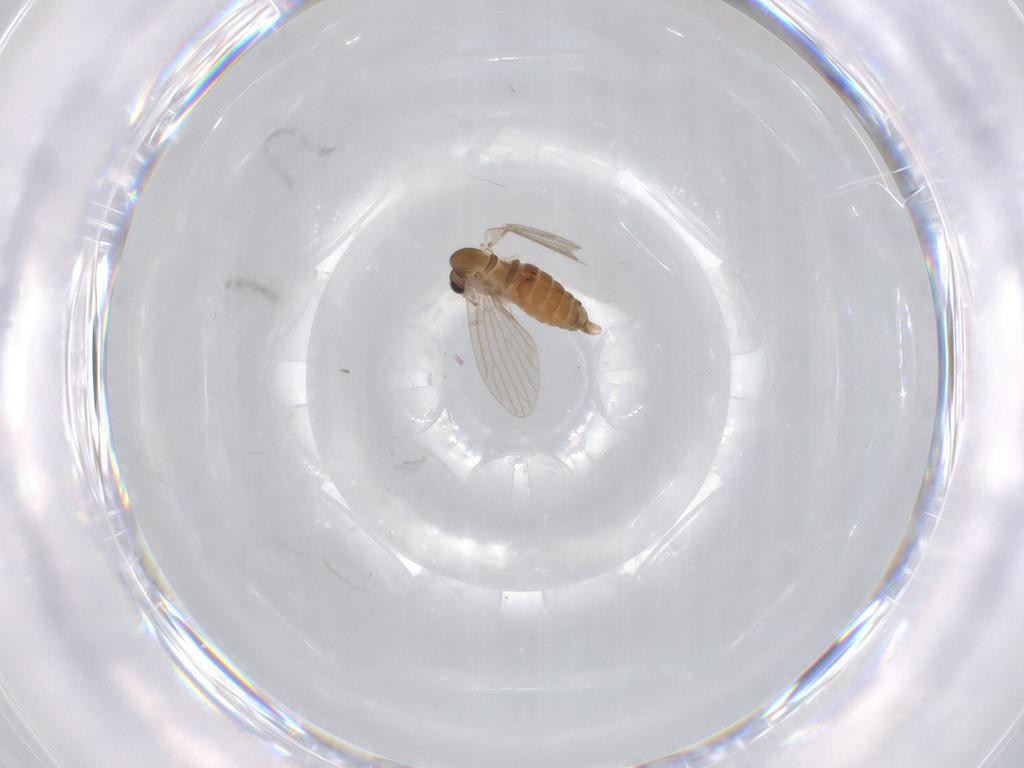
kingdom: Animalia
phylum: Arthropoda
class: Insecta
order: Diptera
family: Psychodidae
